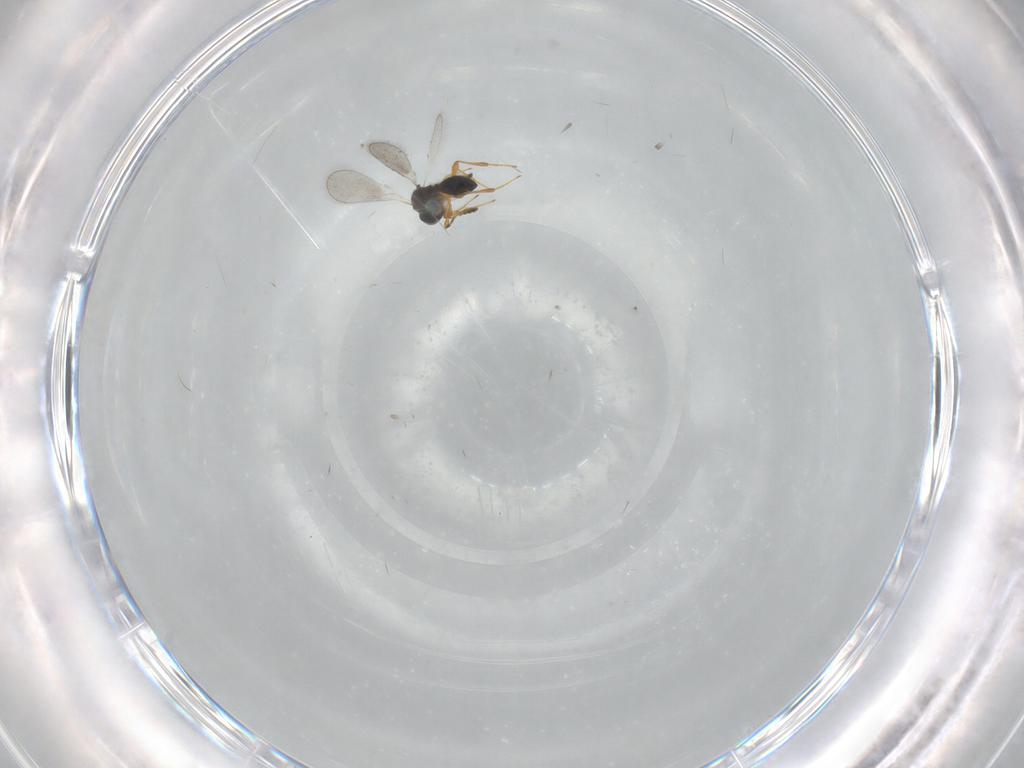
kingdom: Animalia
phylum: Arthropoda
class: Insecta
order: Hymenoptera
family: Platygastridae
